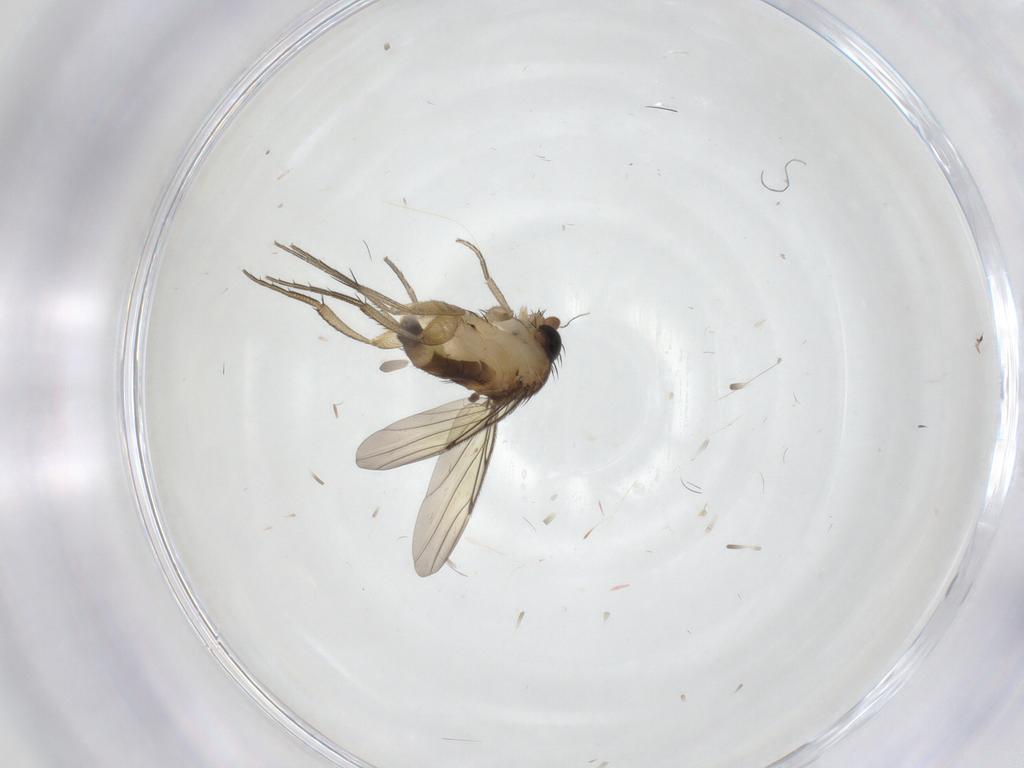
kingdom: Animalia
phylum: Arthropoda
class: Insecta
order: Diptera
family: Phoridae
